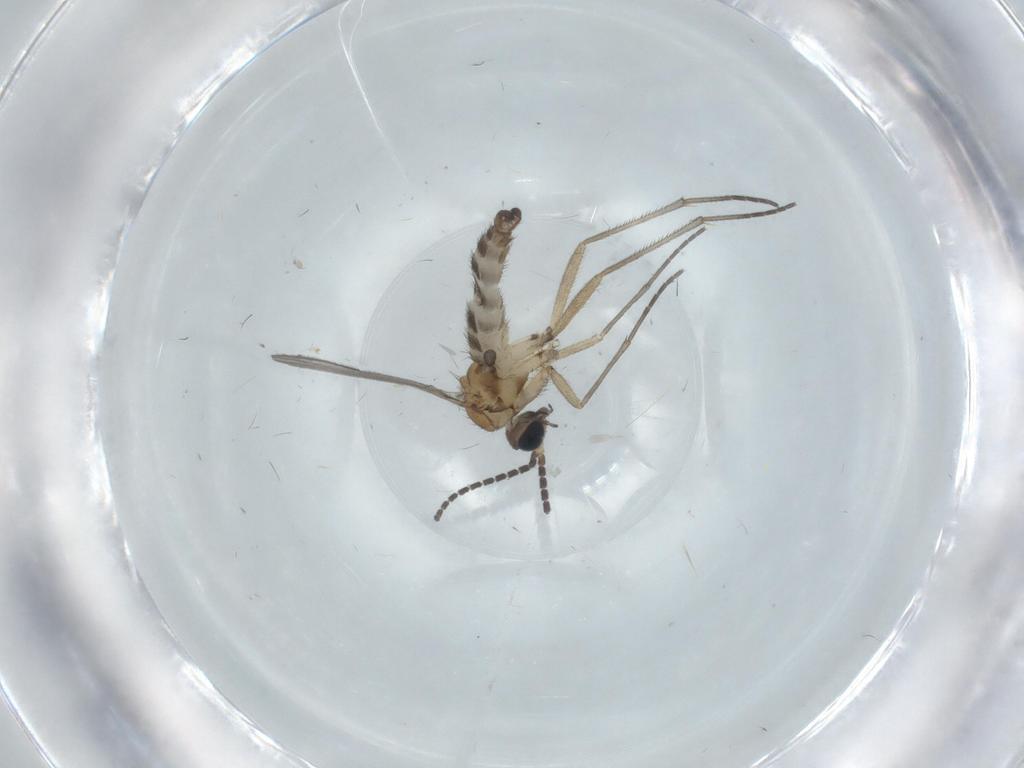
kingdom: Animalia
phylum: Arthropoda
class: Insecta
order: Diptera
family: Sciaridae
